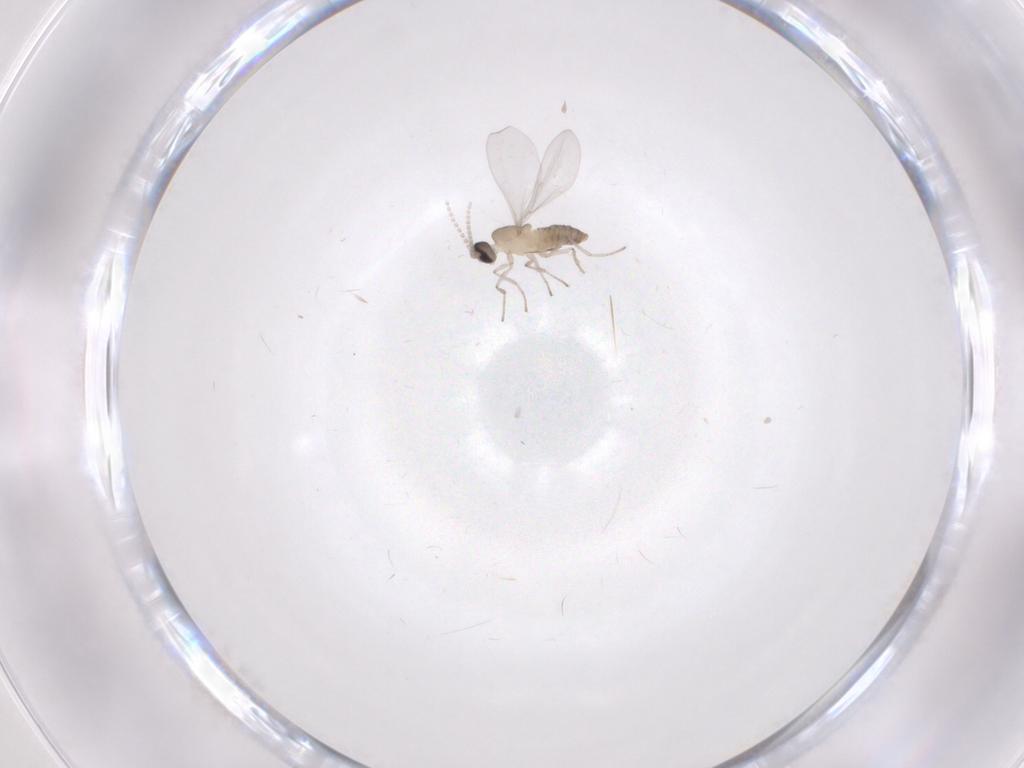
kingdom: Animalia
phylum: Arthropoda
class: Insecta
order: Diptera
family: Cecidomyiidae
